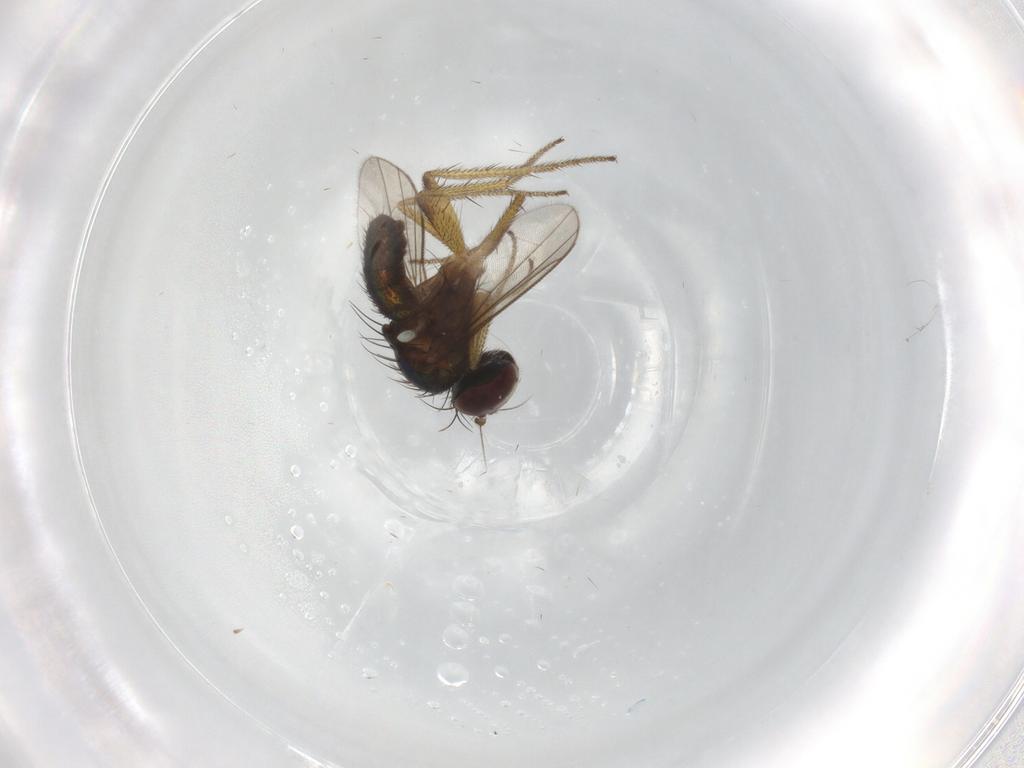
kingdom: Animalia
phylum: Arthropoda
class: Insecta
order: Diptera
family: Dolichopodidae
